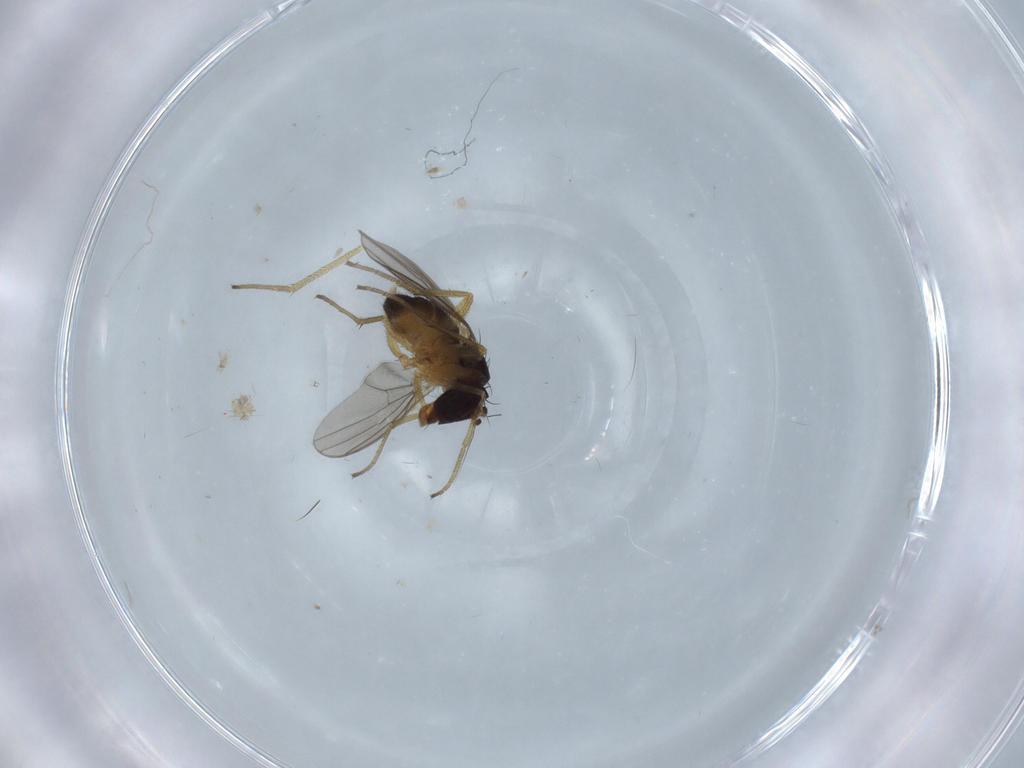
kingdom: Animalia
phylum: Arthropoda
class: Insecta
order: Diptera
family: Dolichopodidae
